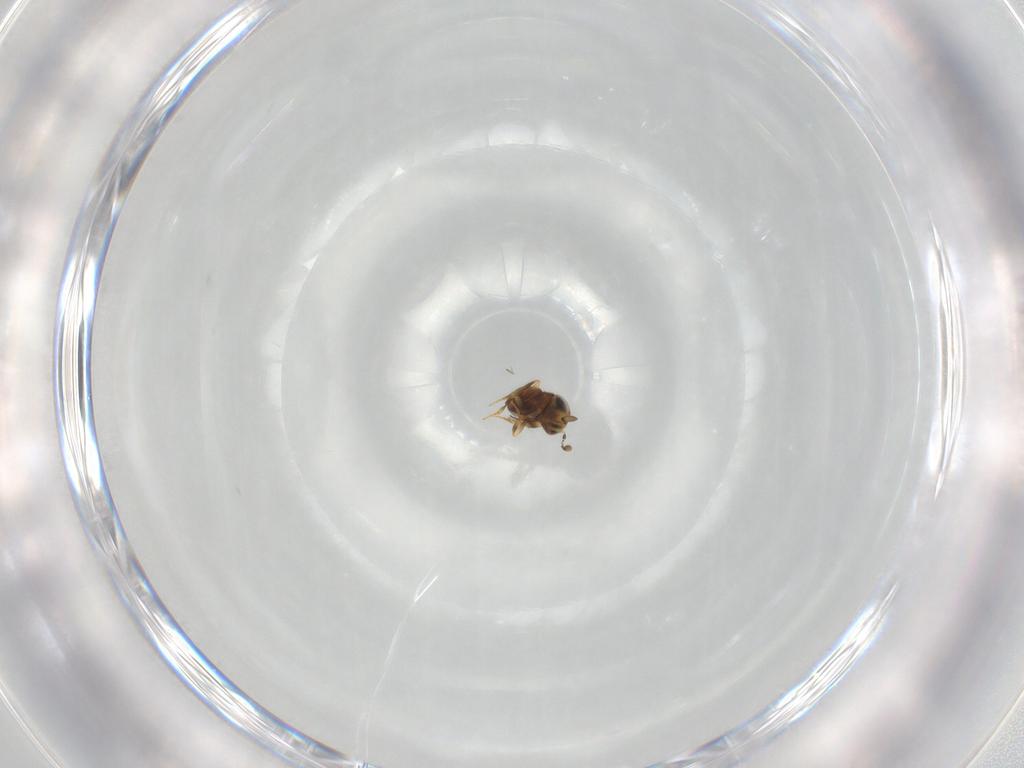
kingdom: Animalia
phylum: Arthropoda
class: Insecta
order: Hymenoptera
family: Scelionidae
